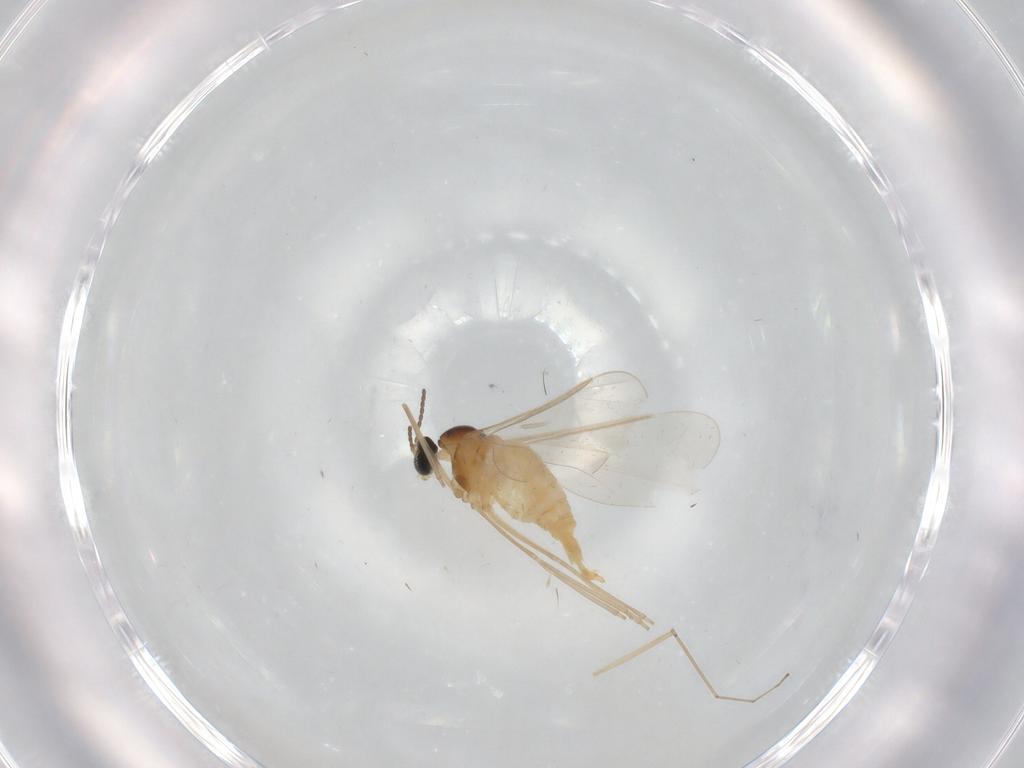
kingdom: Animalia
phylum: Arthropoda
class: Insecta
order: Diptera
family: Cecidomyiidae
